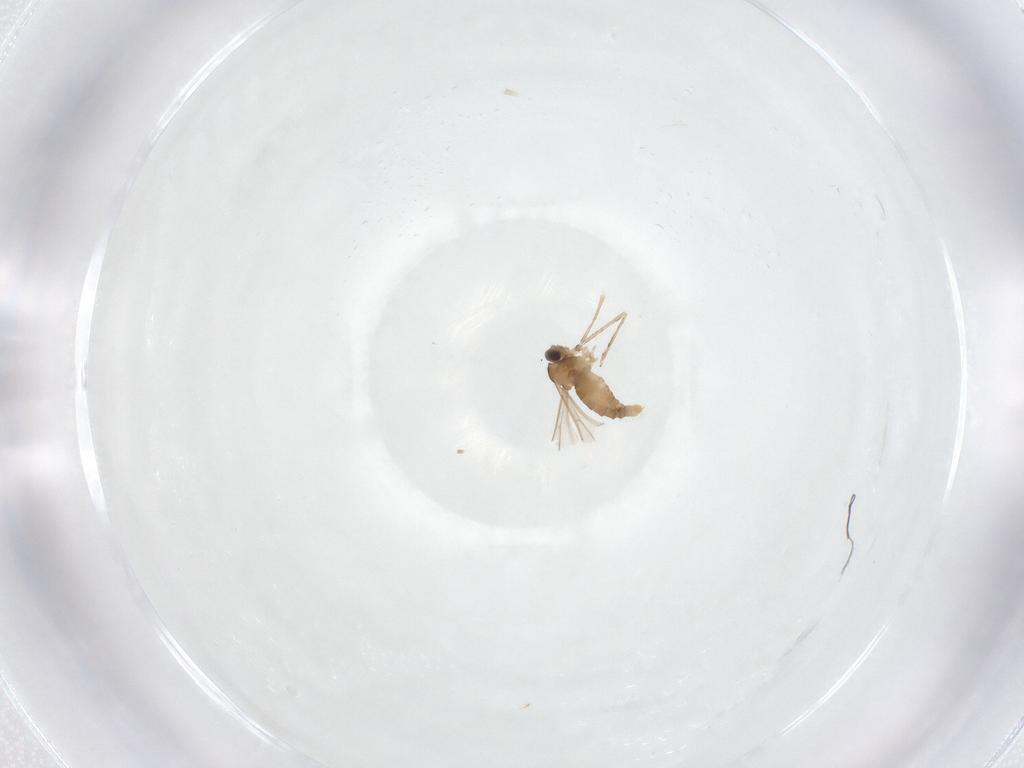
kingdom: Animalia
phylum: Arthropoda
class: Insecta
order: Diptera
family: Cecidomyiidae
